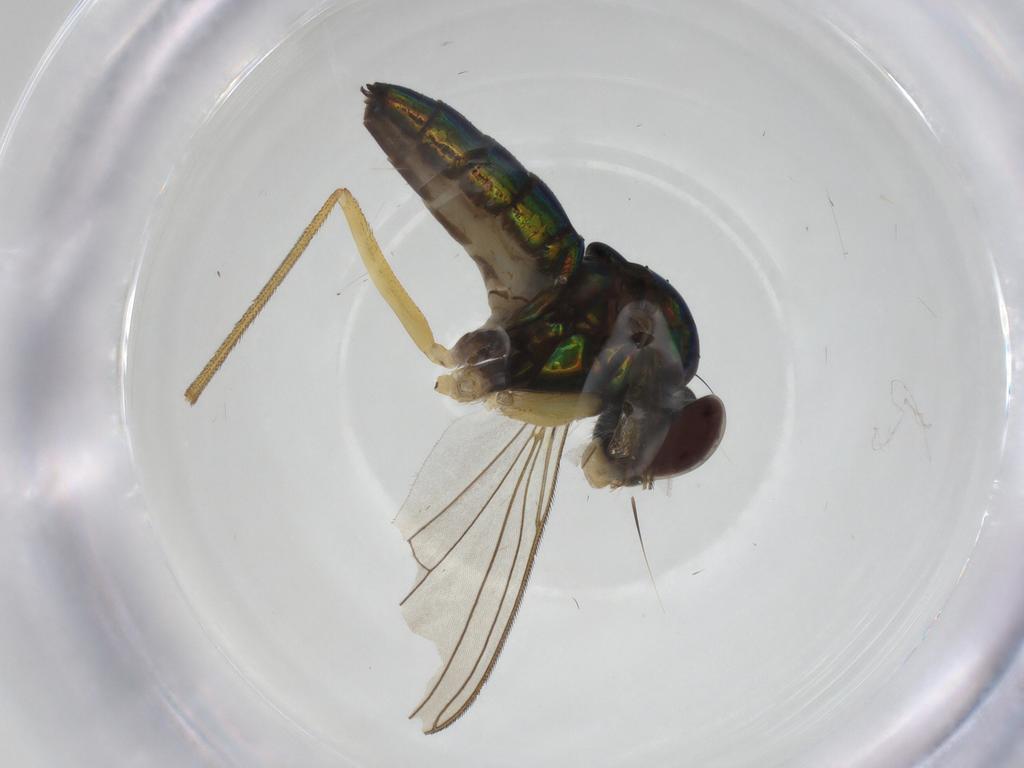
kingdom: Animalia
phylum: Arthropoda
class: Insecta
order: Diptera
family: Dolichopodidae
